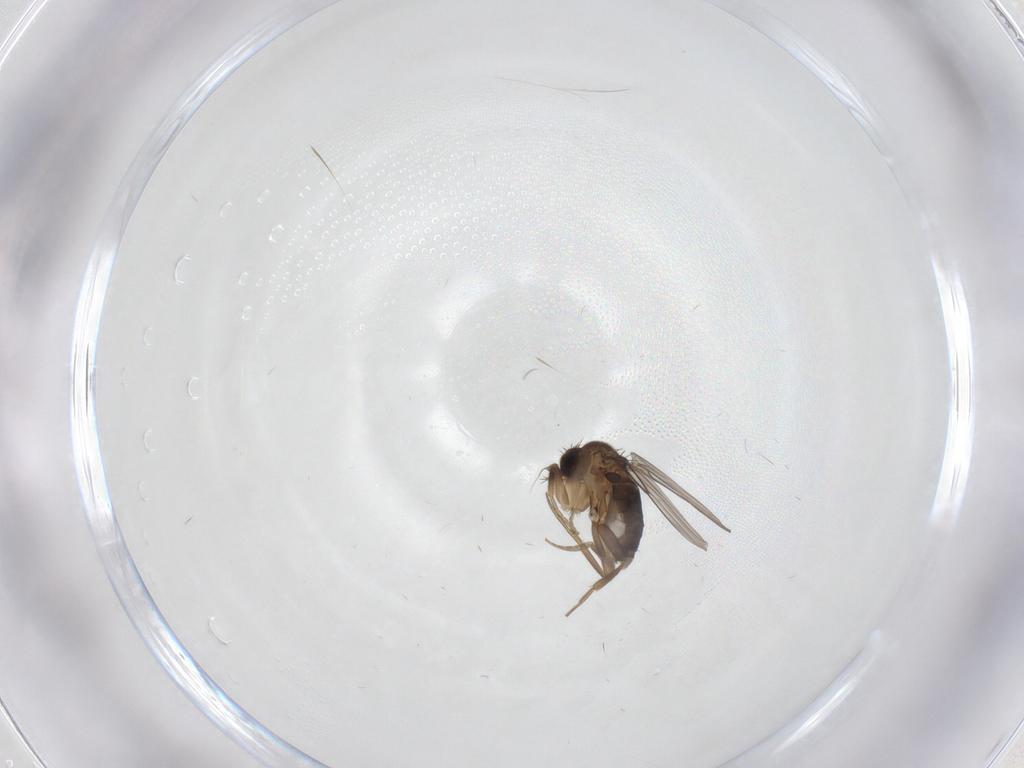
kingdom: Animalia
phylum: Arthropoda
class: Insecta
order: Diptera
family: Phoridae
